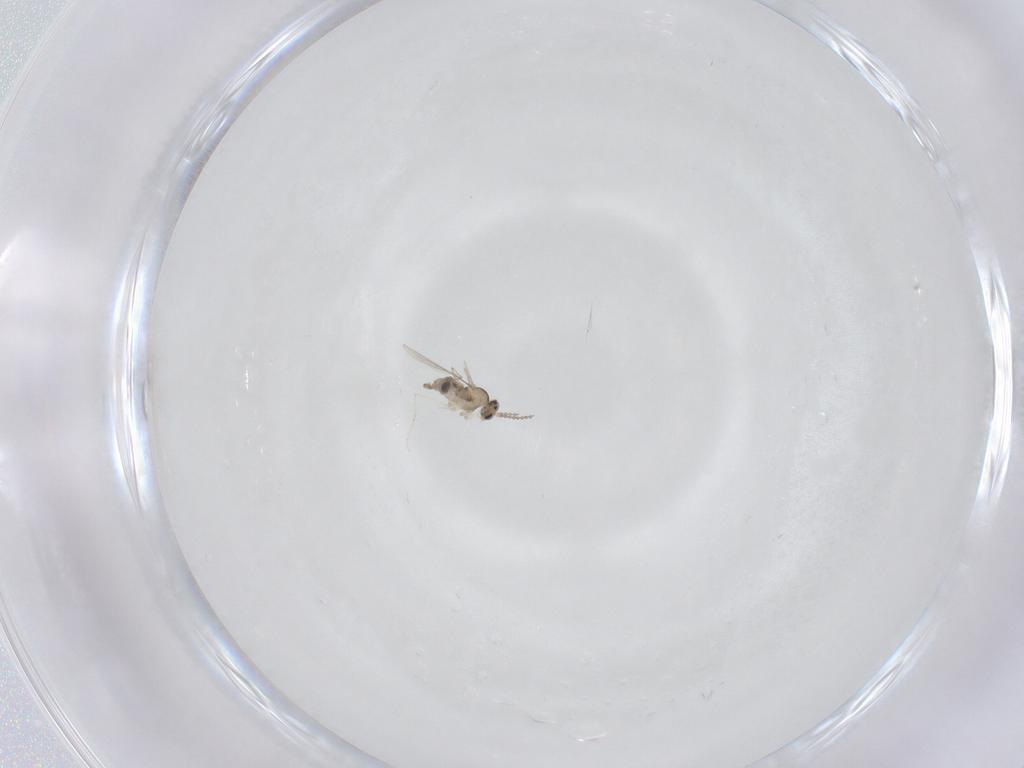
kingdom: Animalia
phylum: Arthropoda
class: Insecta
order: Diptera
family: Cecidomyiidae
